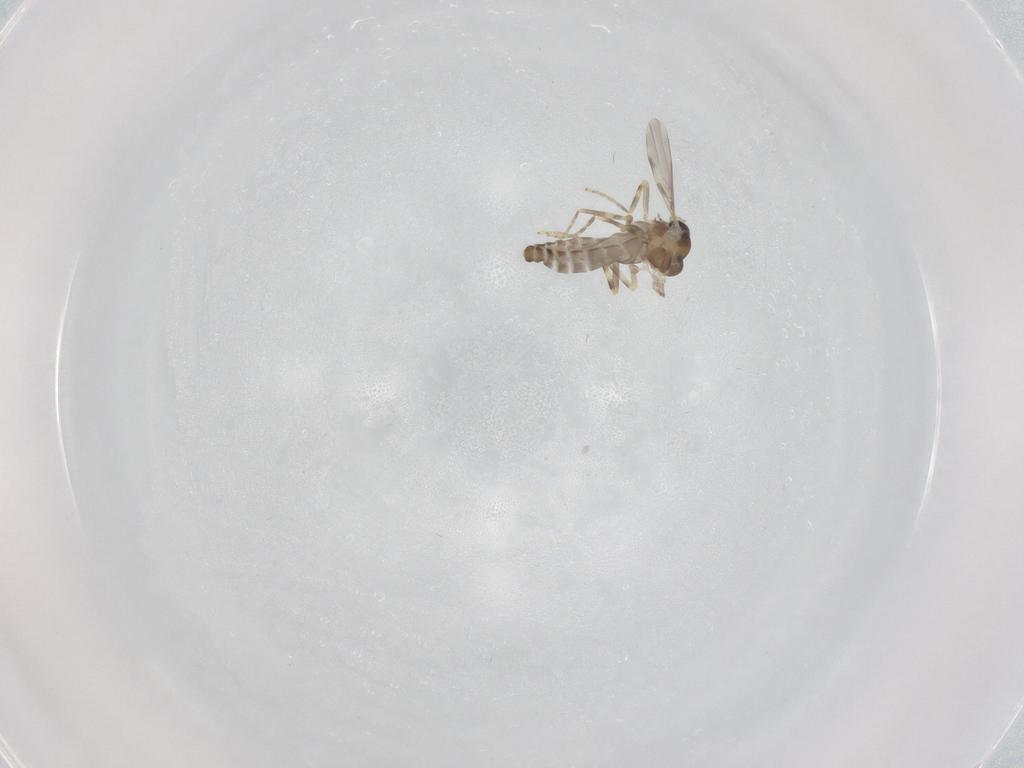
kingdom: Animalia
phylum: Arthropoda
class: Insecta
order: Diptera
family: Ceratopogonidae
